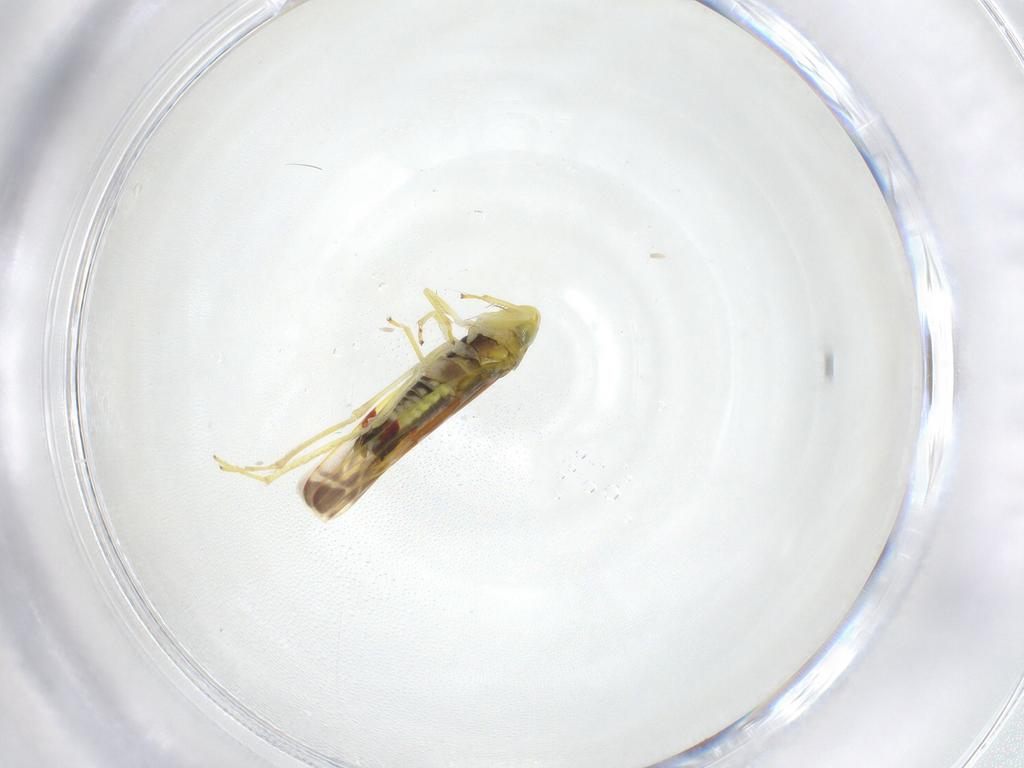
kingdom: Animalia
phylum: Arthropoda
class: Insecta
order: Hemiptera
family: Cicadellidae
